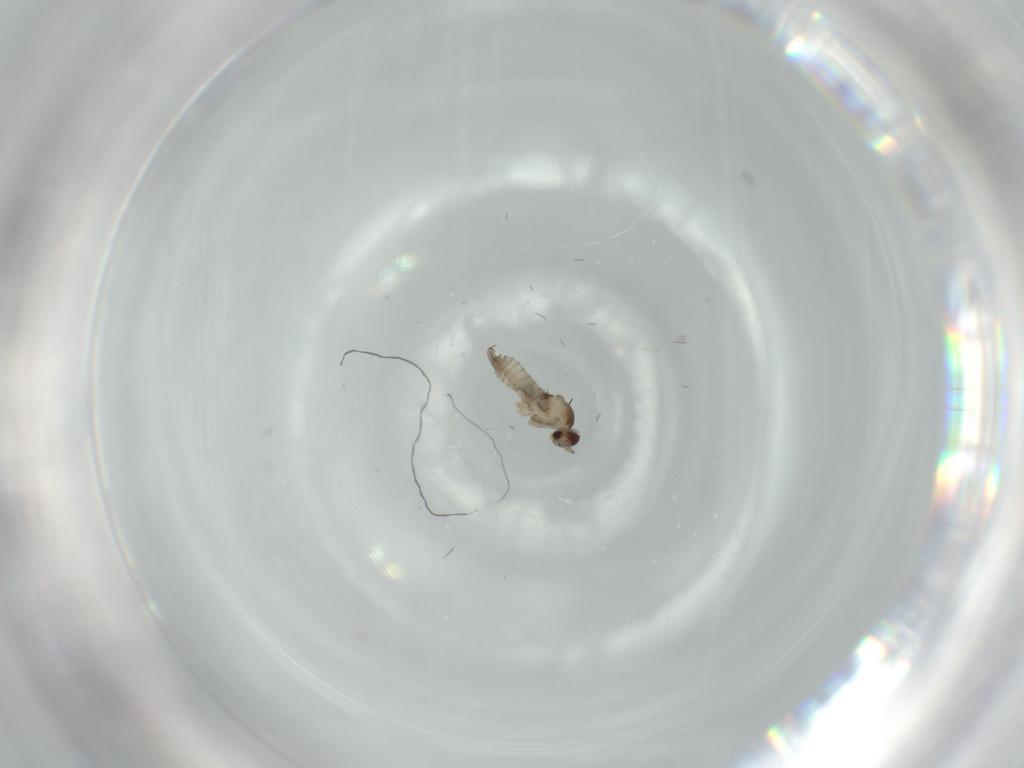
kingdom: Animalia
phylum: Arthropoda
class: Insecta
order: Diptera
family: Cecidomyiidae
